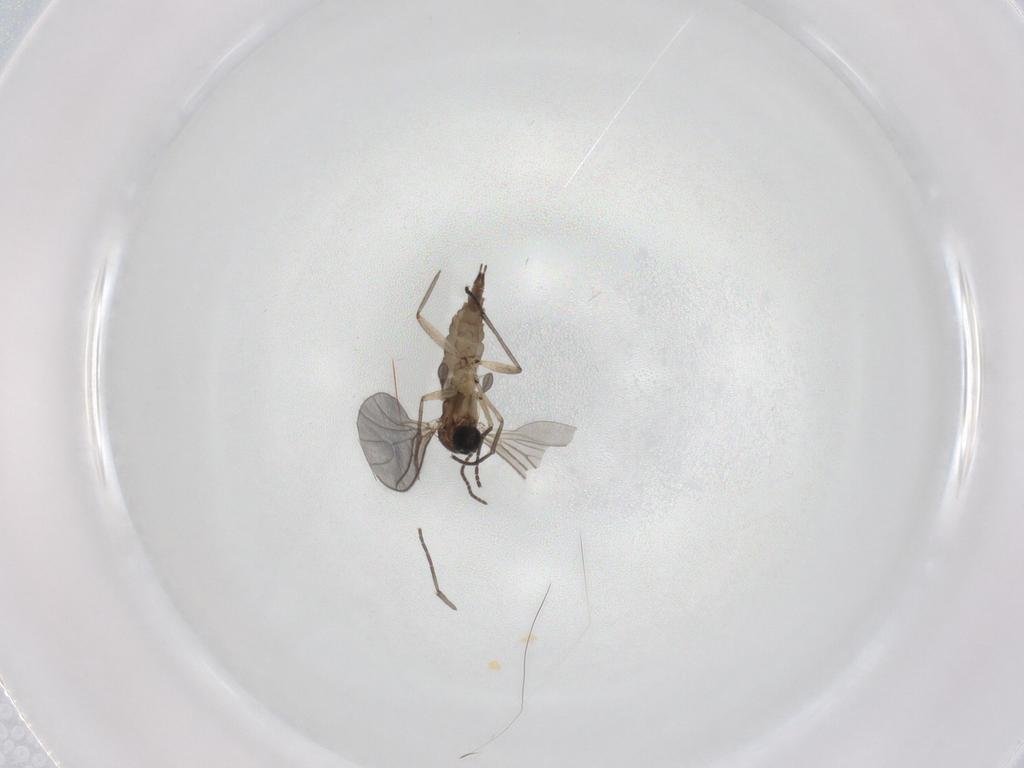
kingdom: Animalia
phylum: Arthropoda
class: Insecta
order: Diptera
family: Sciaridae
